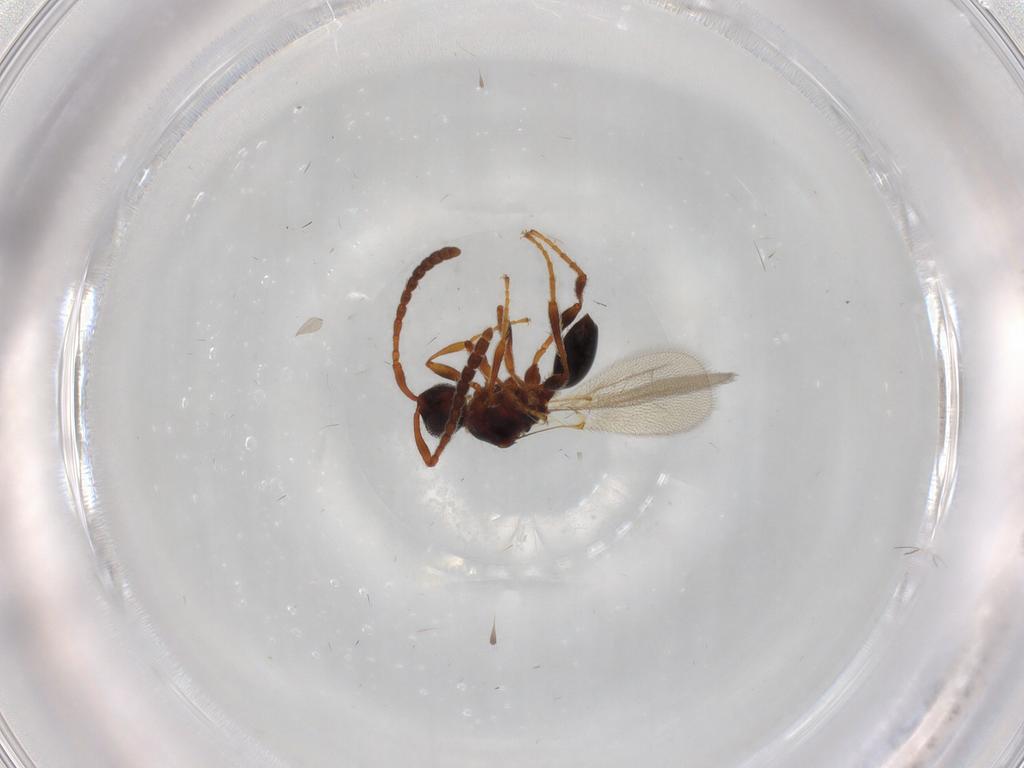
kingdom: Animalia
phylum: Arthropoda
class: Insecta
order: Hymenoptera
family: Diapriidae
